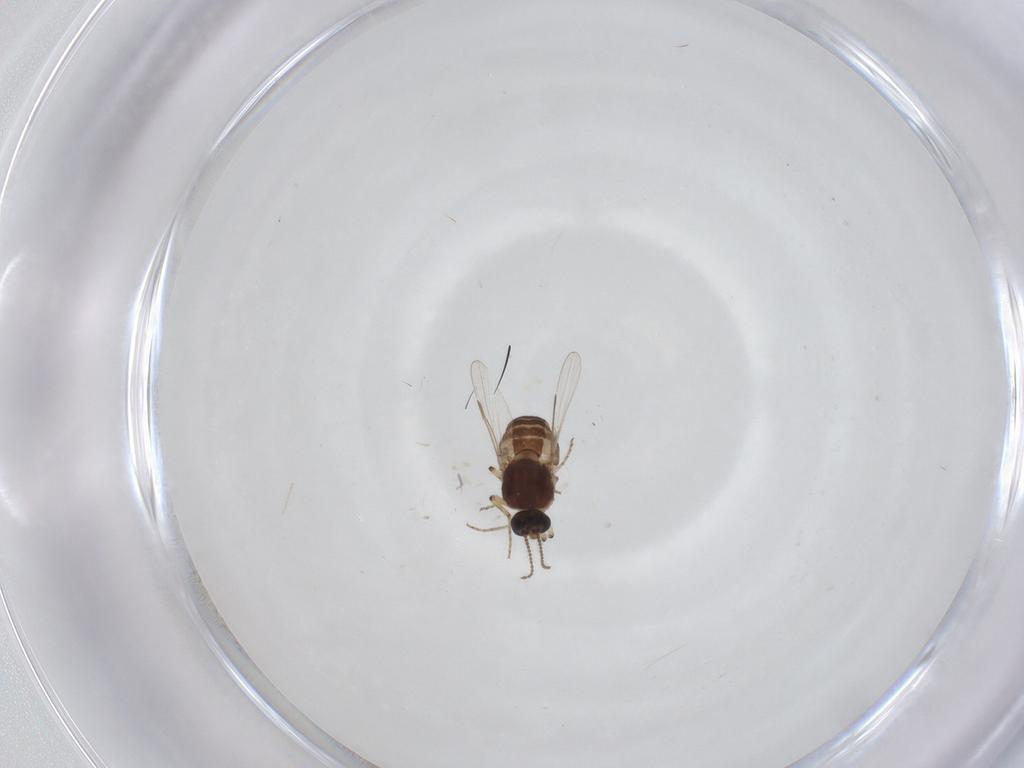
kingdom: Animalia
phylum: Arthropoda
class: Insecta
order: Diptera
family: Ceratopogonidae
